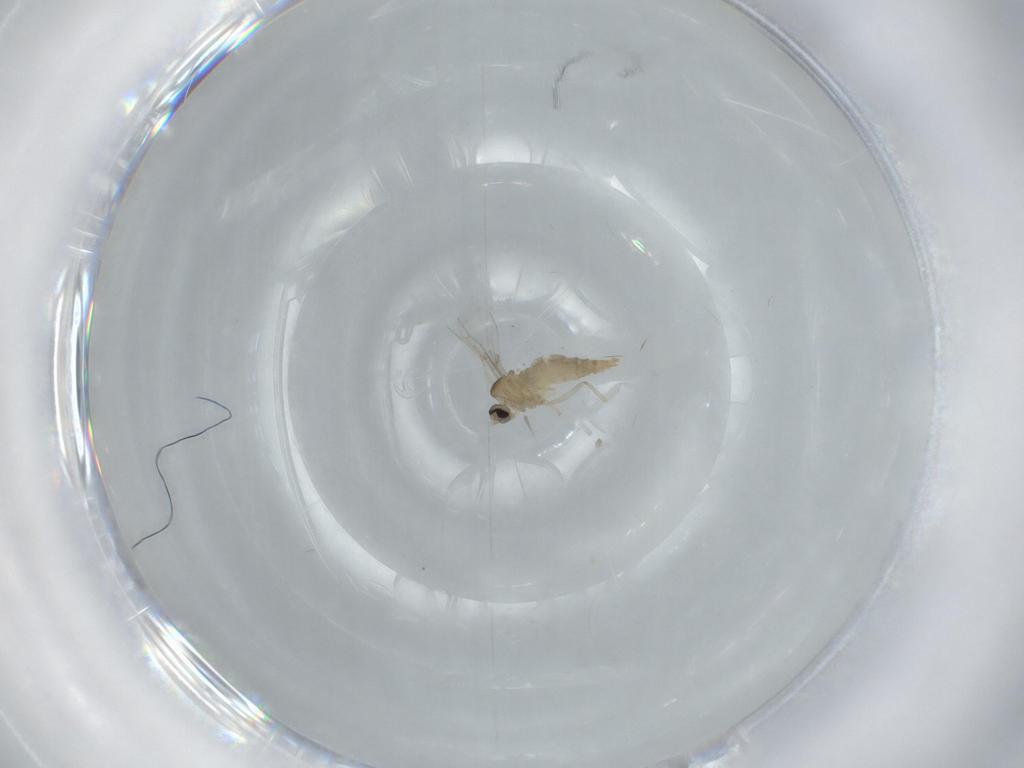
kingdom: Animalia
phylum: Arthropoda
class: Insecta
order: Diptera
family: Cecidomyiidae
